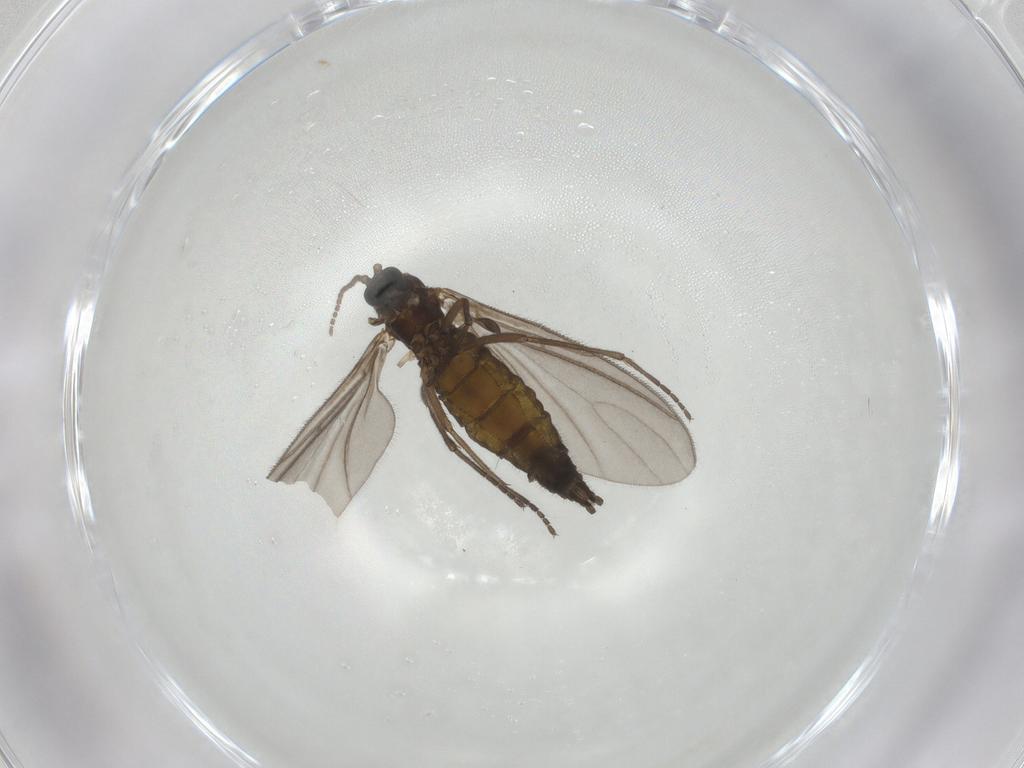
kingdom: Animalia
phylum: Arthropoda
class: Insecta
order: Diptera
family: Sciaridae
